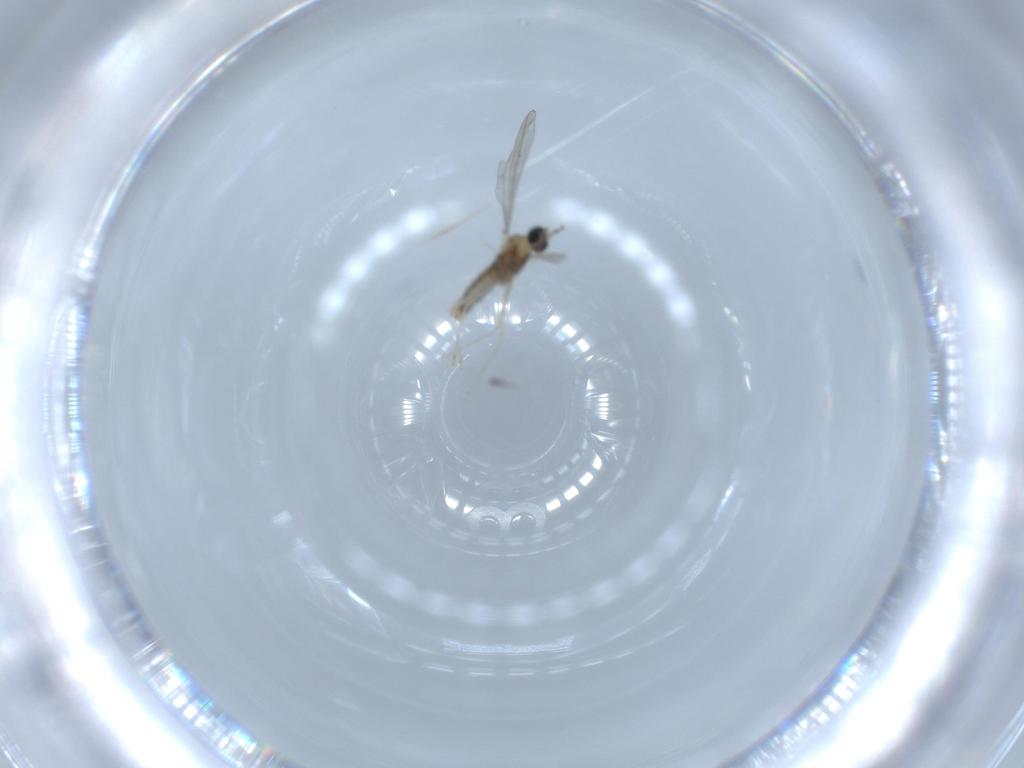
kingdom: Animalia
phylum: Arthropoda
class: Insecta
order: Diptera
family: Cecidomyiidae
